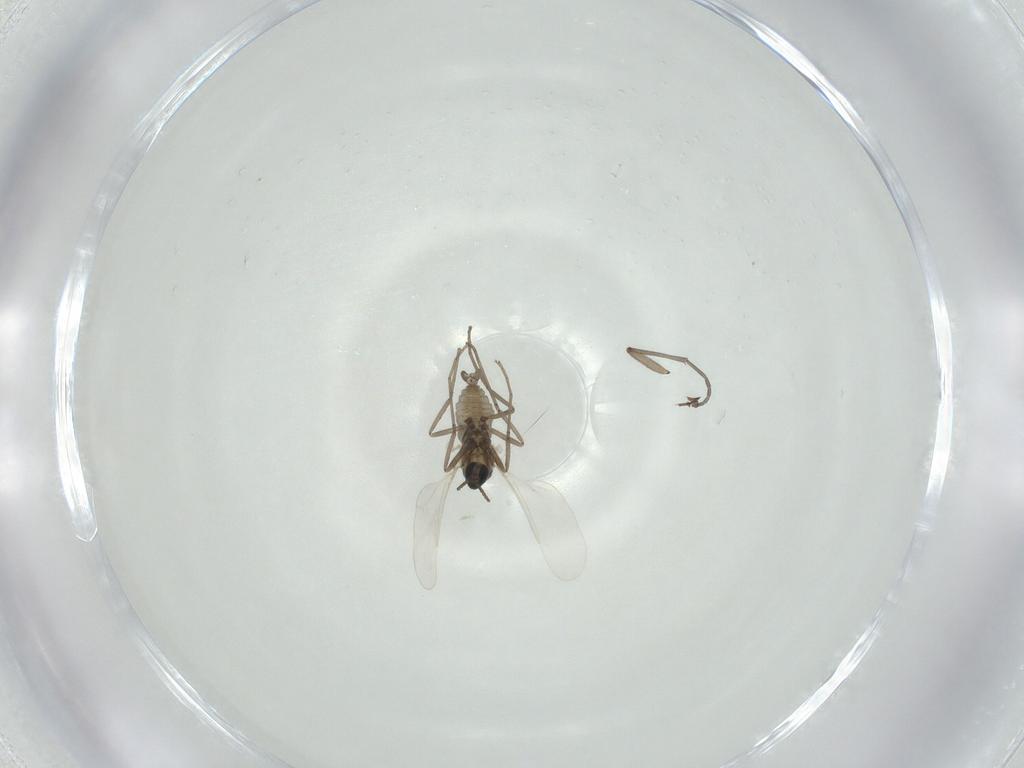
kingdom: Animalia
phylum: Arthropoda
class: Insecta
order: Diptera
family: Cecidomyiidae
